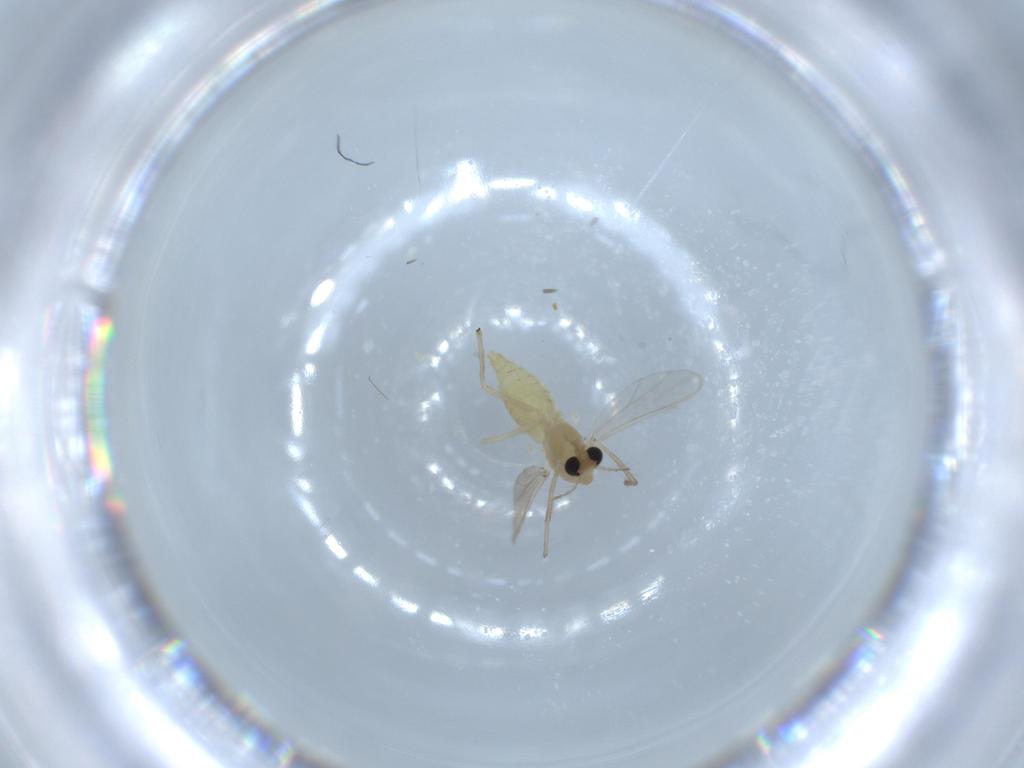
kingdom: Animalia
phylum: Arthropoda
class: Insecta
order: Diptera
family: Chironomidae
